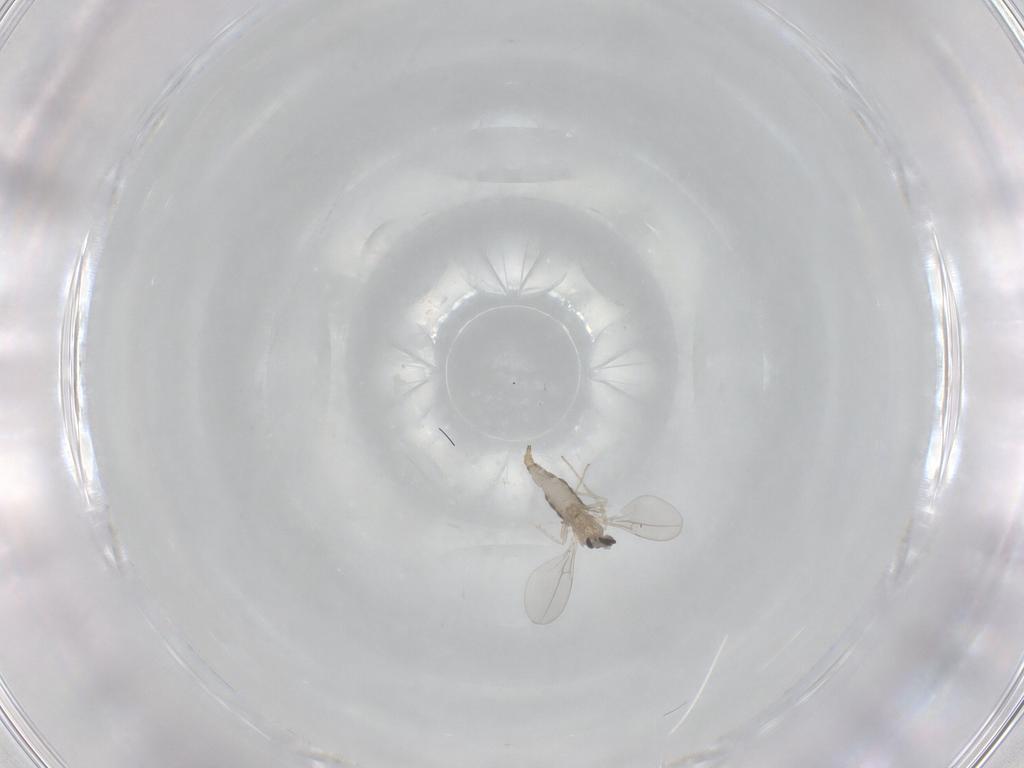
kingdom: Animalia
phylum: Arthropoda
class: Insecta
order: Diptera
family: Cecidomyiidae
